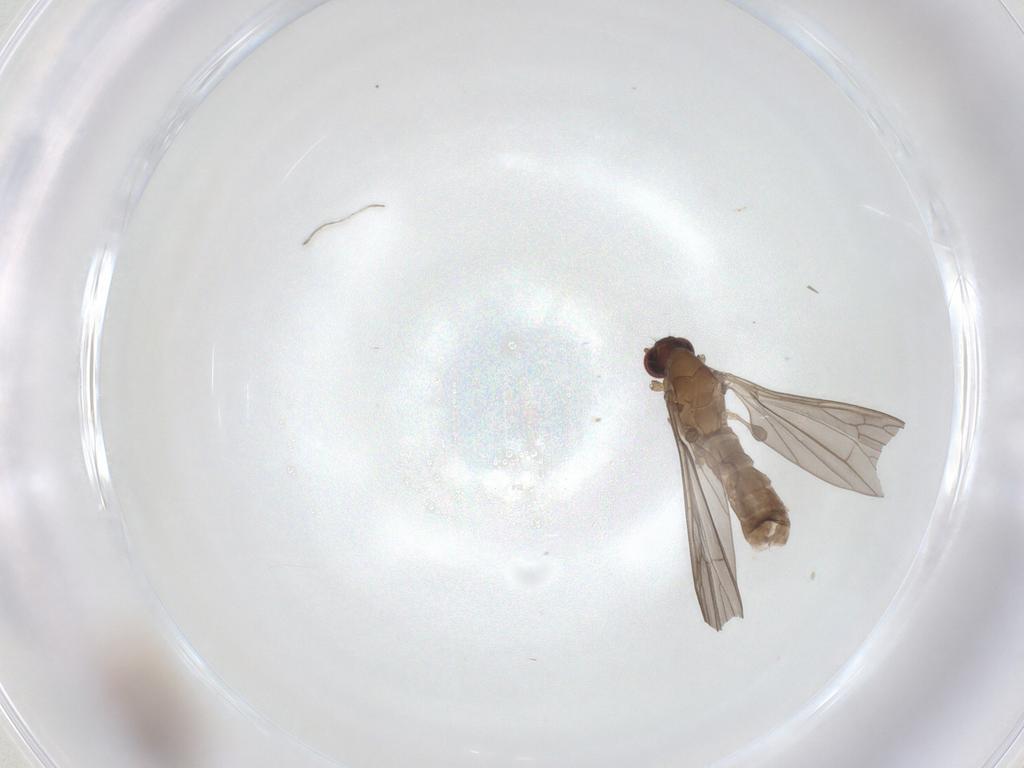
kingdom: Animalia
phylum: Arthropoda
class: Insecta
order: Diptera
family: Limoniidae
